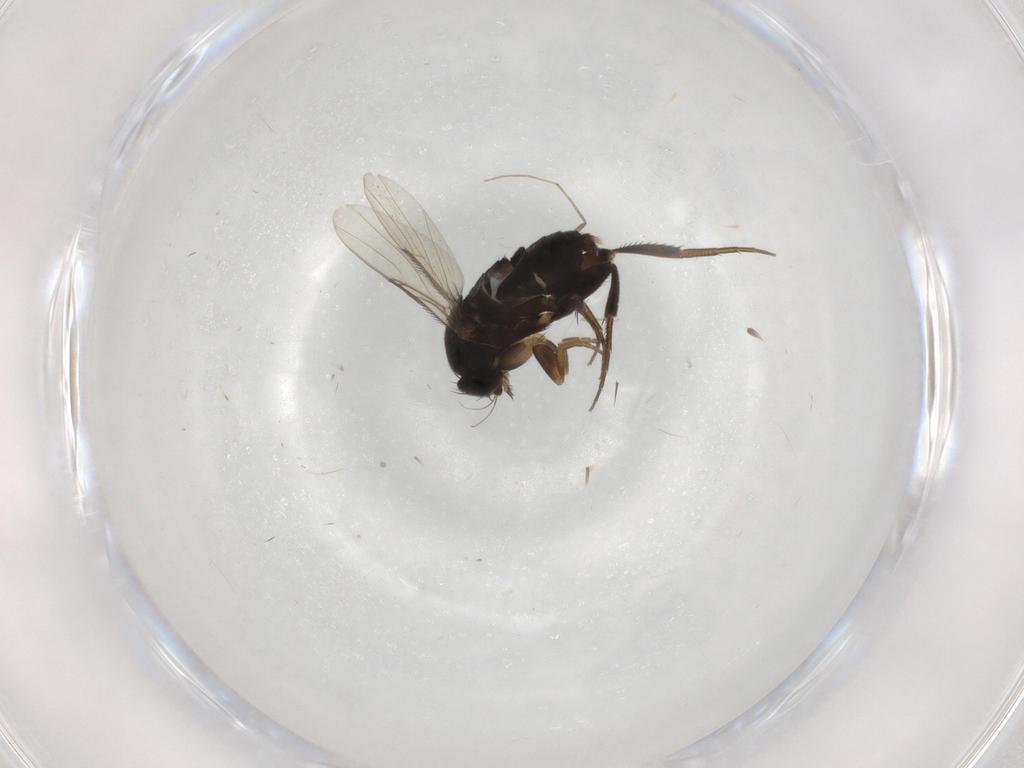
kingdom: Animalia
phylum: Arthropoda
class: Insecta
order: Diptera
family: Phoridae
